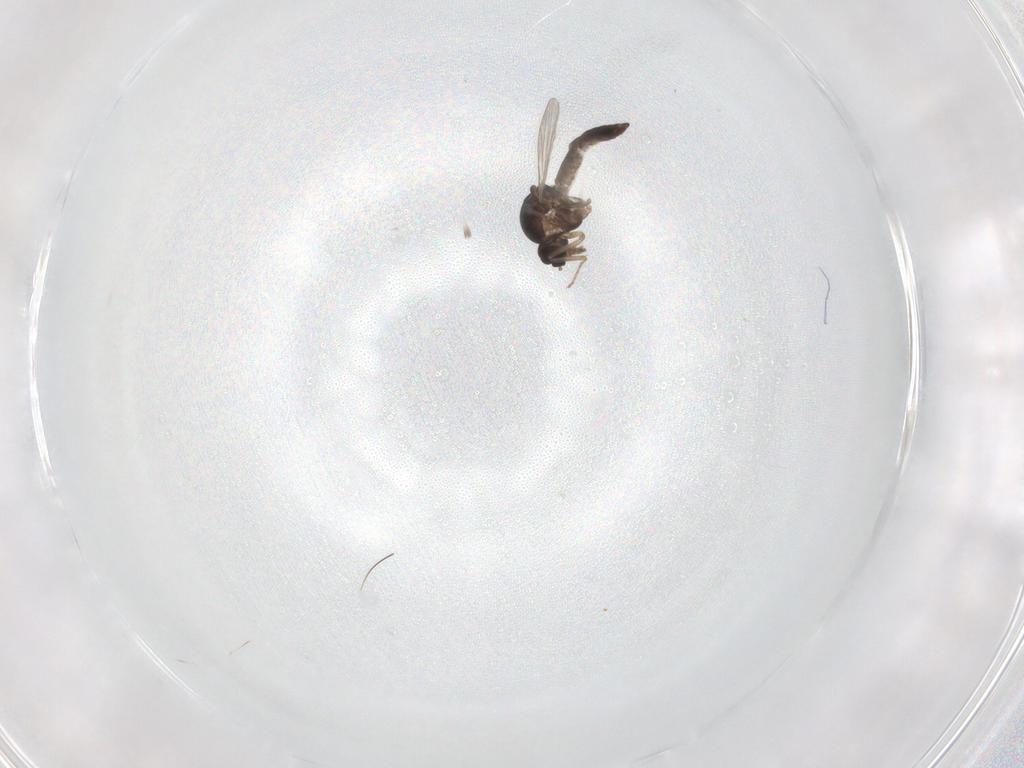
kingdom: Animalia
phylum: Arthropoda
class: Insecta
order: Diptera
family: Ceratopogonidae
